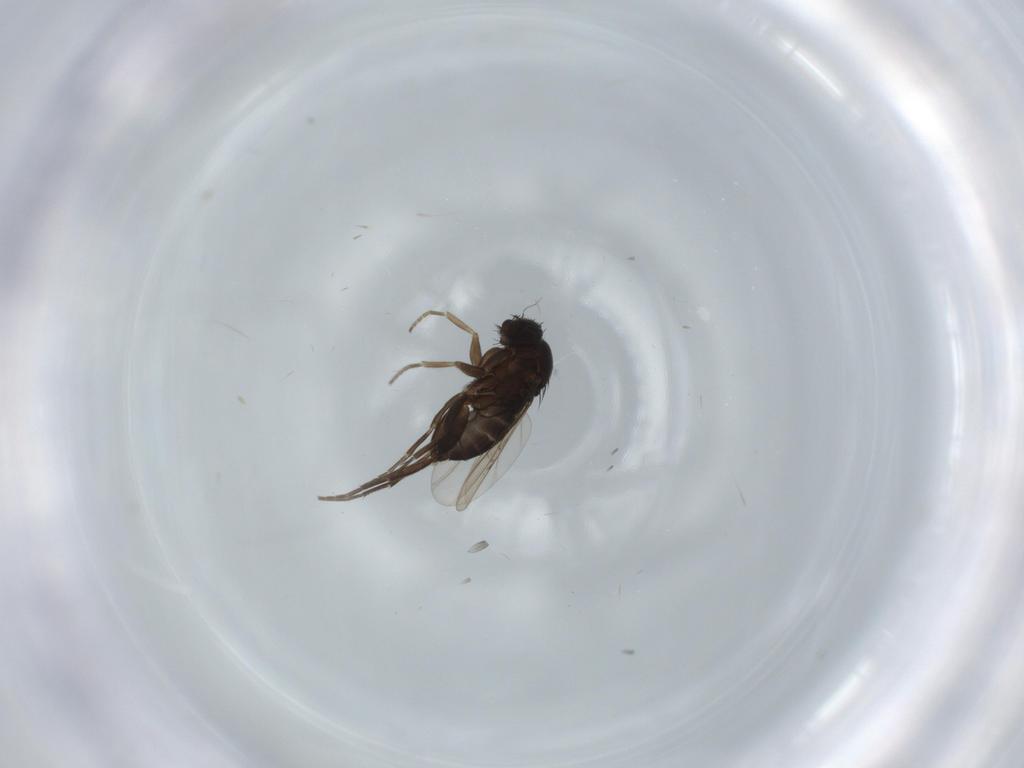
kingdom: Animalia
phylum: Arthropoda
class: Insecta
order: Diptera
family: Phoridae
